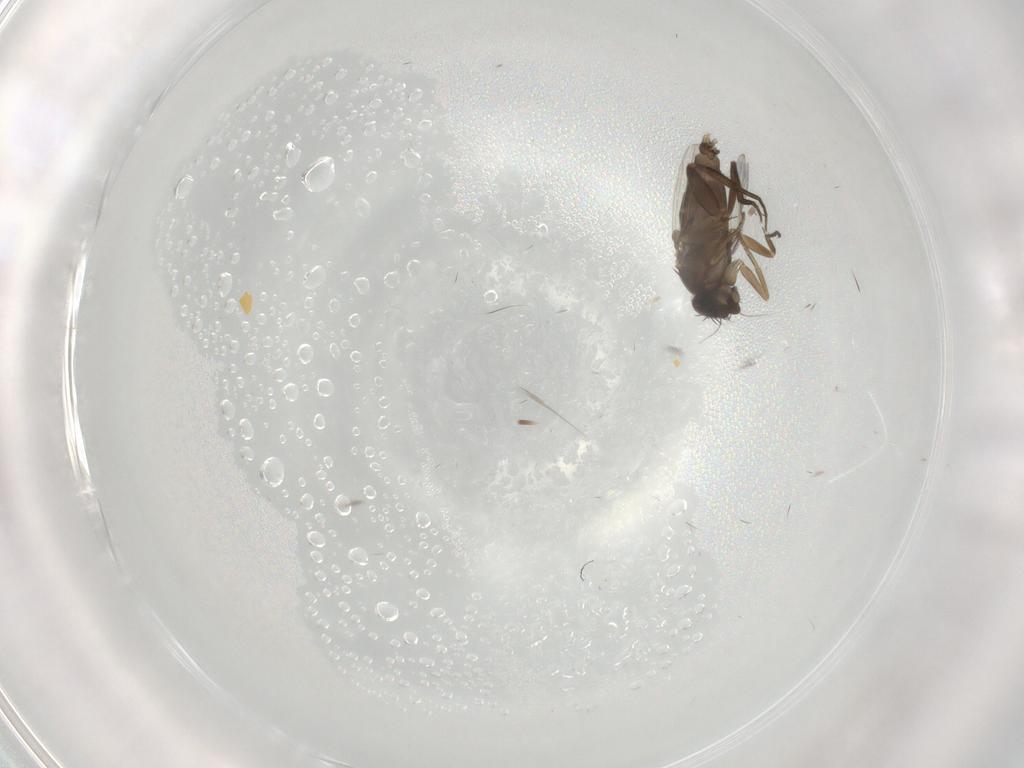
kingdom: Animalia
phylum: Arthropoda
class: Insecta
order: Diptera
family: Phoridae
